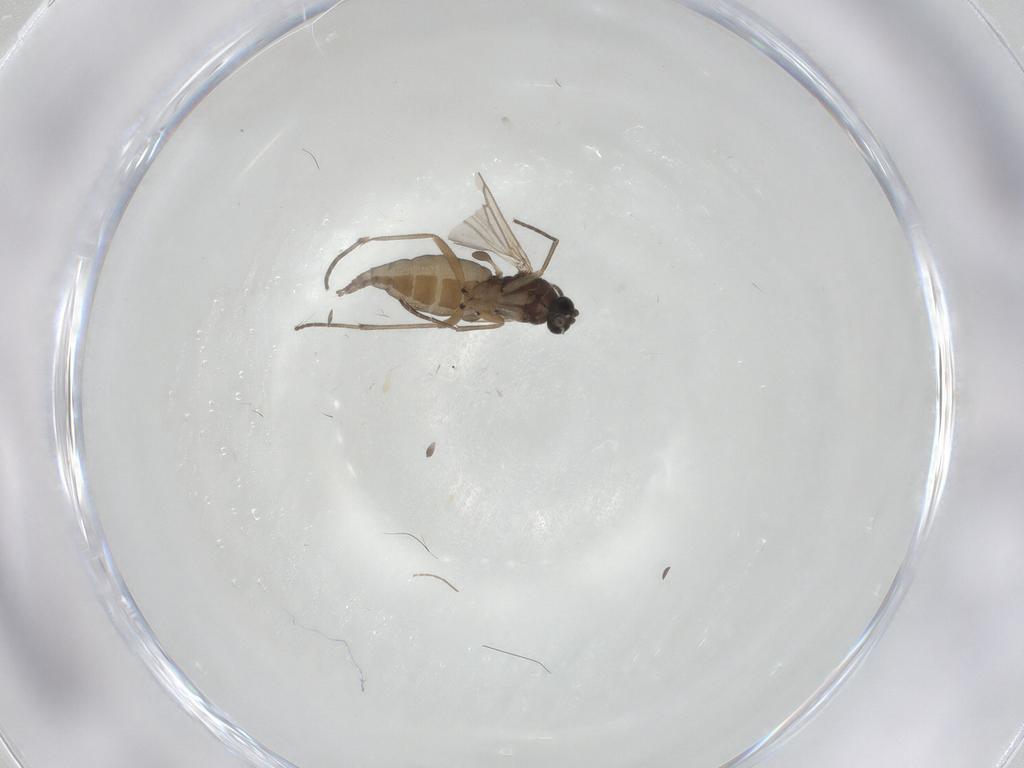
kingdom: Animalia
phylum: Arthropoda
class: Insecta
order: Diptera
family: Sciaridae
